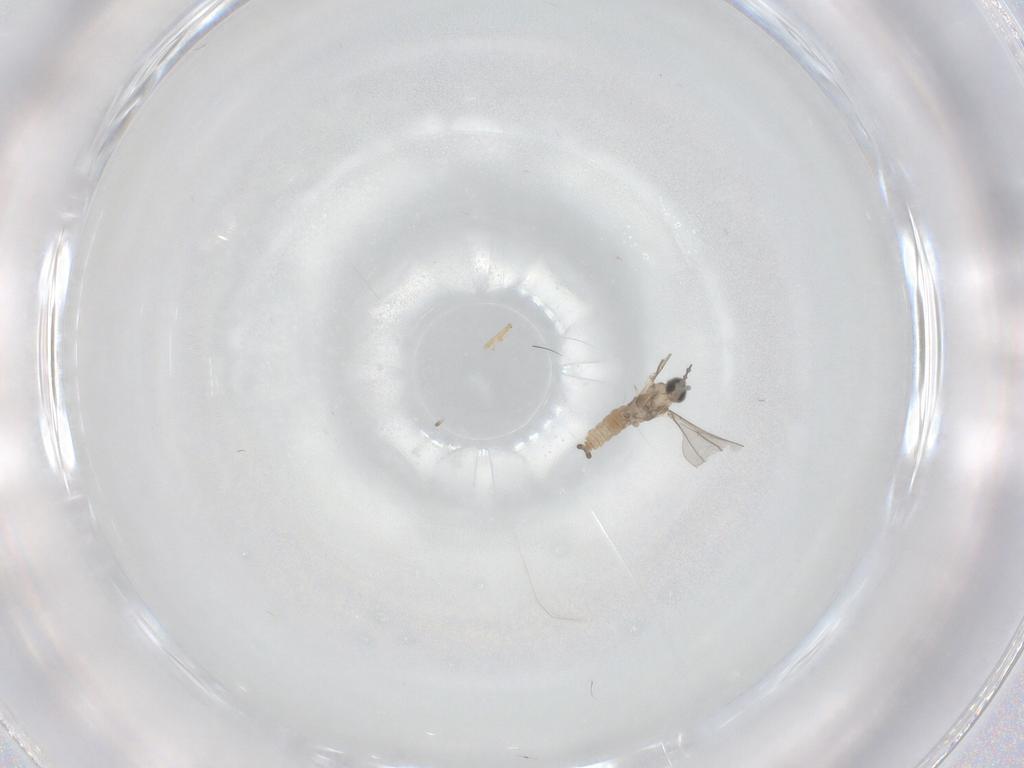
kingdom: Animalia
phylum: Arthropoda
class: Insecta
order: Diptera
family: Cecidomyiidae
